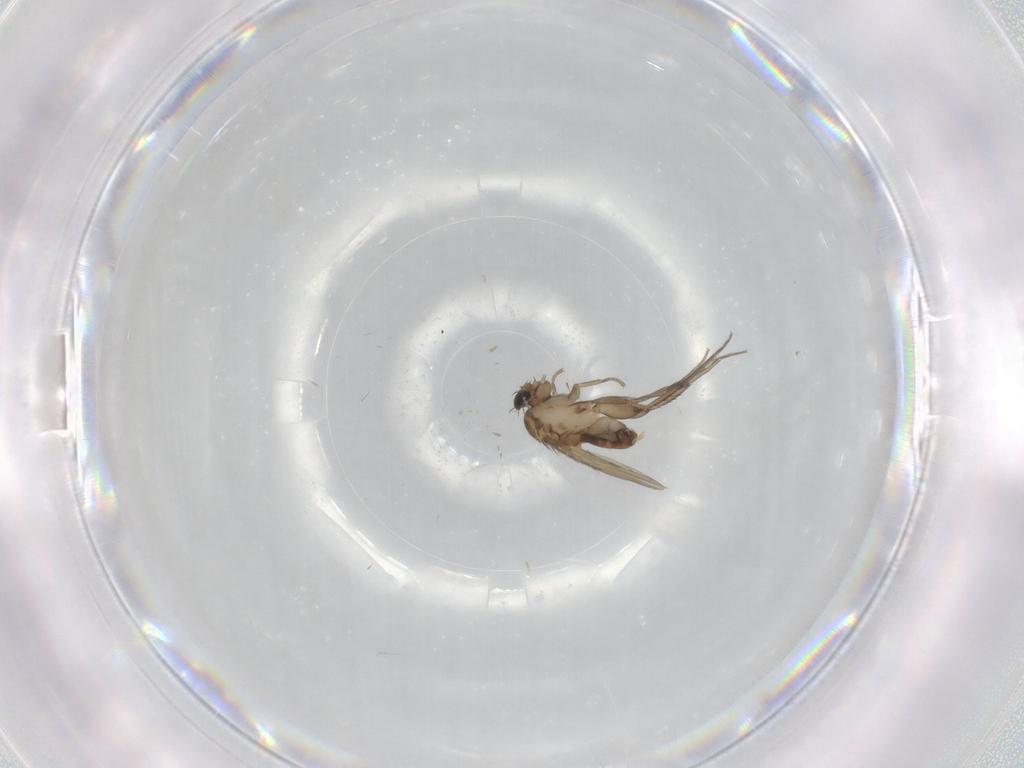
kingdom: Animalia
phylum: Arthropoda
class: Insecta
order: Diptera
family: Phoridae
